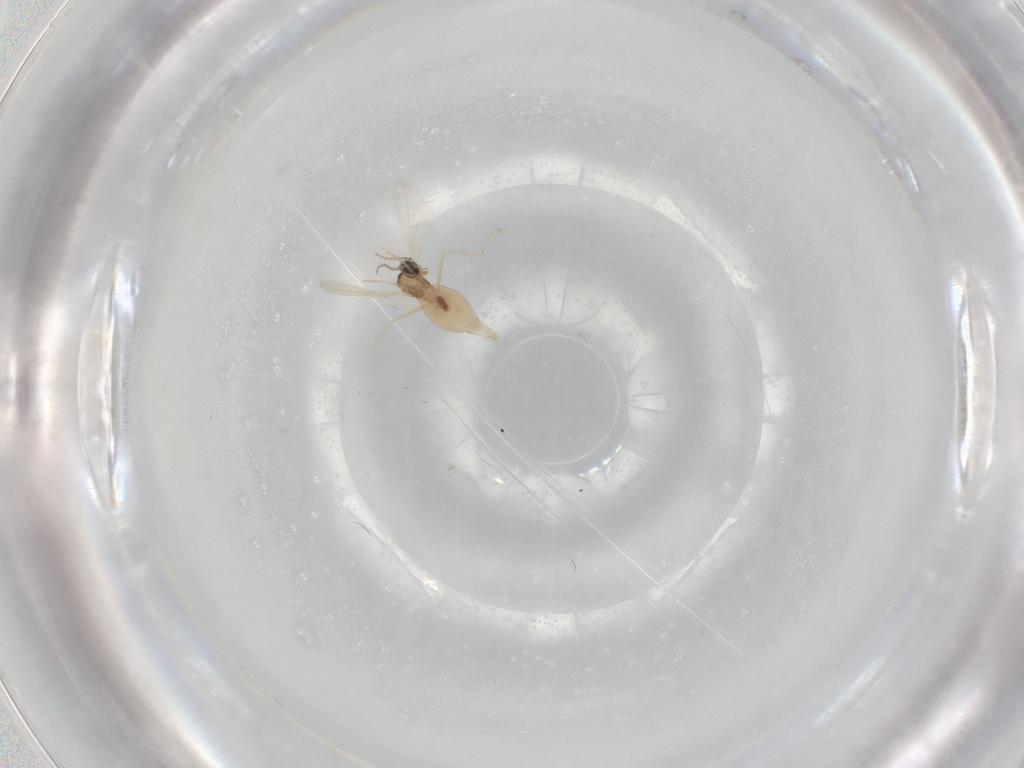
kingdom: Animalia
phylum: Arthropoda
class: Insecta
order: Diptera
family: Cecidomyiidae
